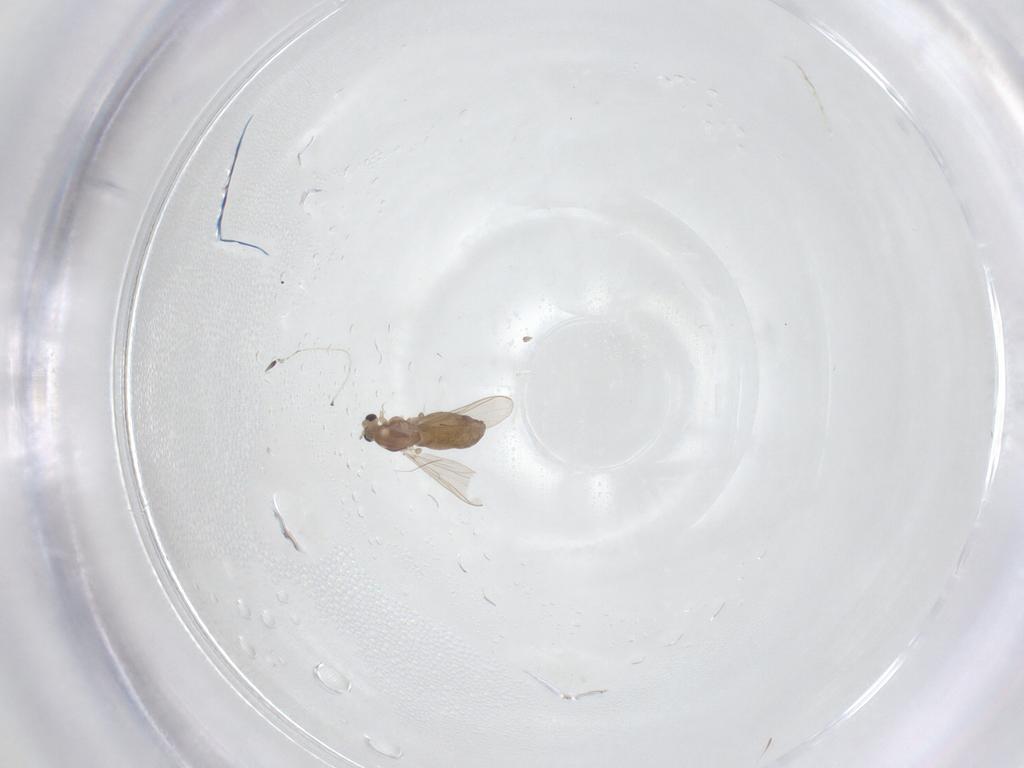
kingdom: Animalia
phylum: Arthropoda
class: Insecta
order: Diptera
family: Chironomidae
